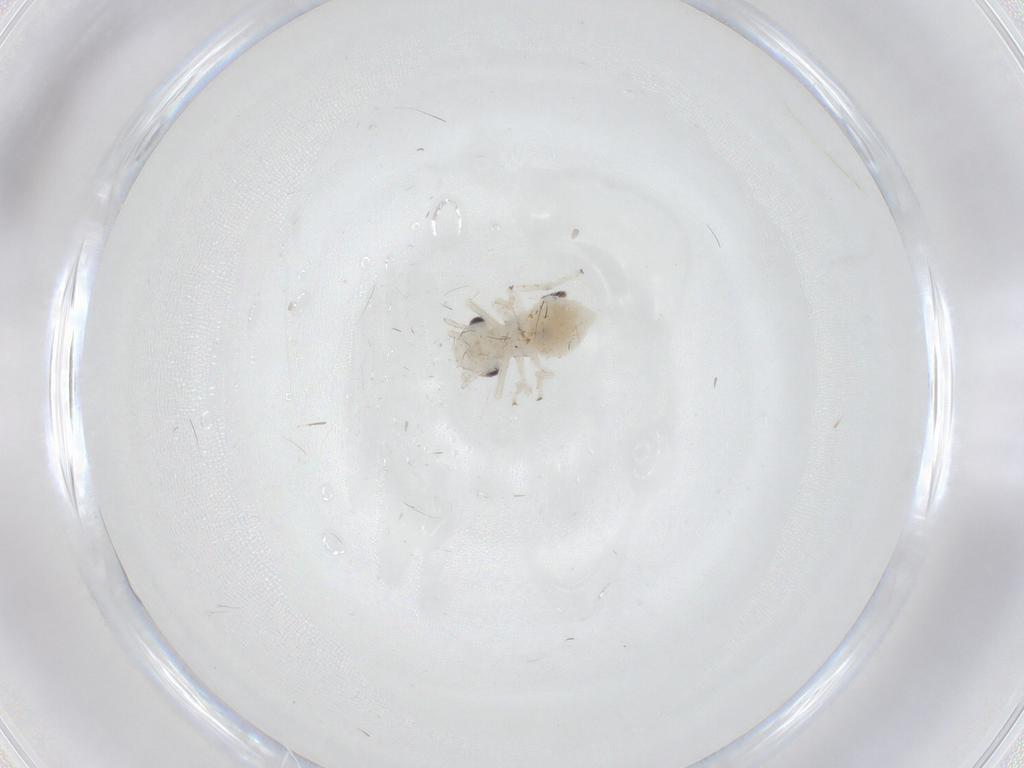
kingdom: Animalia
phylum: Arthropoda
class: Insecta
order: Psocodea
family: Amphipsocidae
